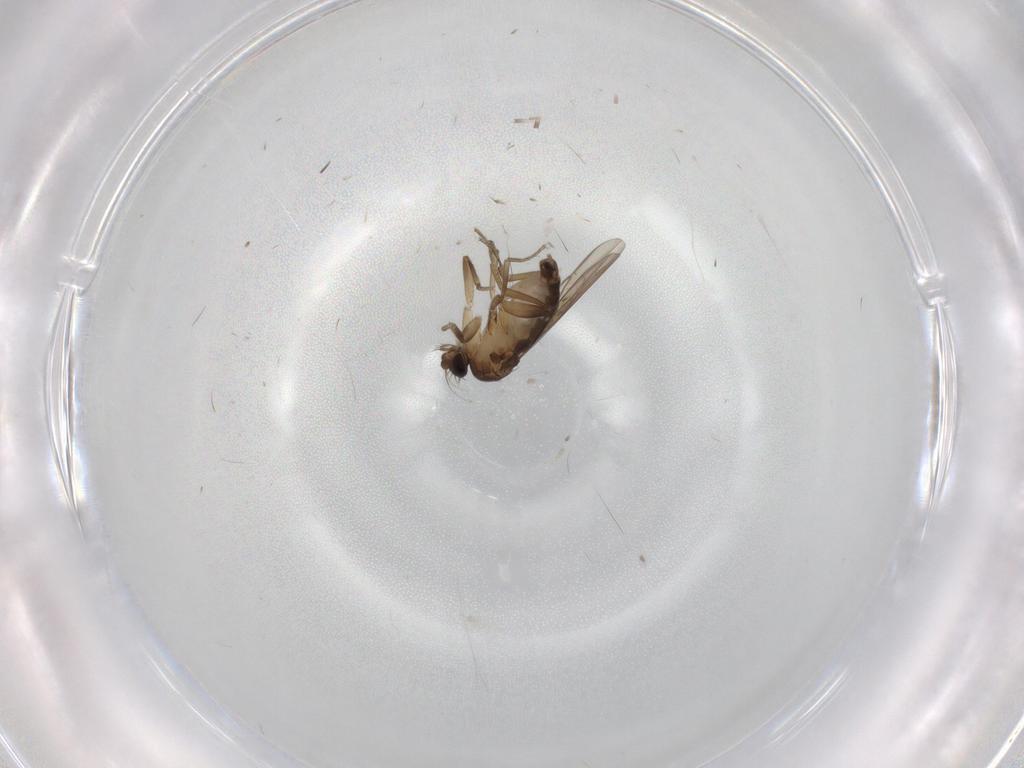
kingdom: Animalia
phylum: Arthropoda
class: Insecta
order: Diptera
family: Phoridae
